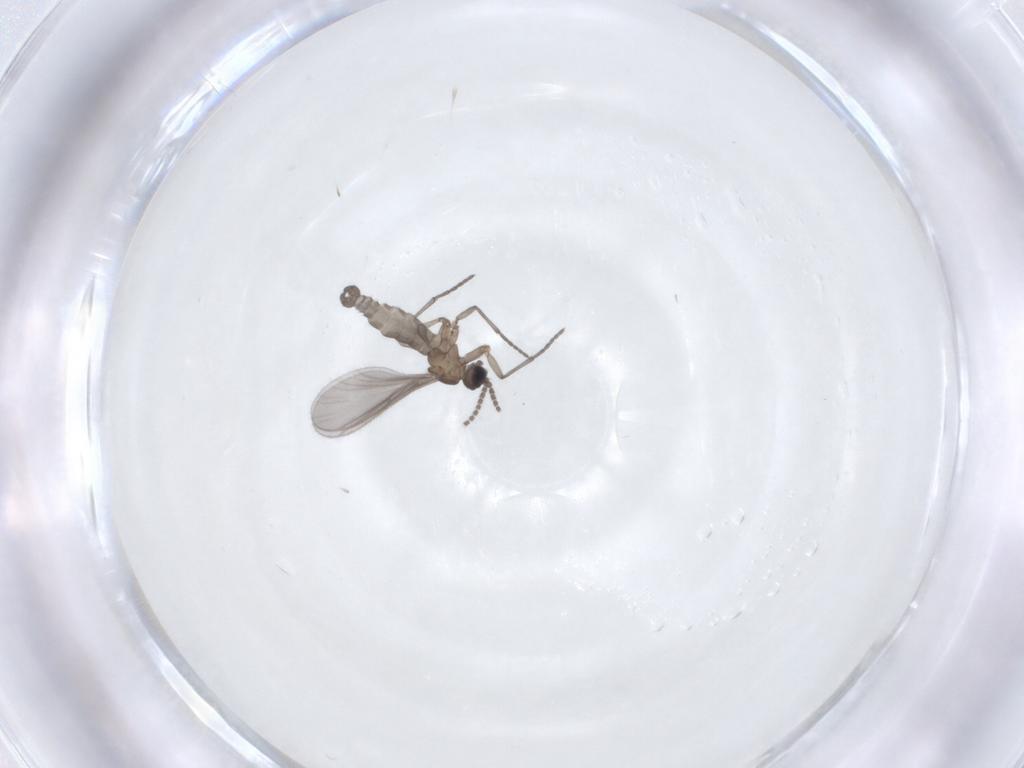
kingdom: Animalia
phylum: Arthropoda
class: Insecta
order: Diptera
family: Sciaridae
